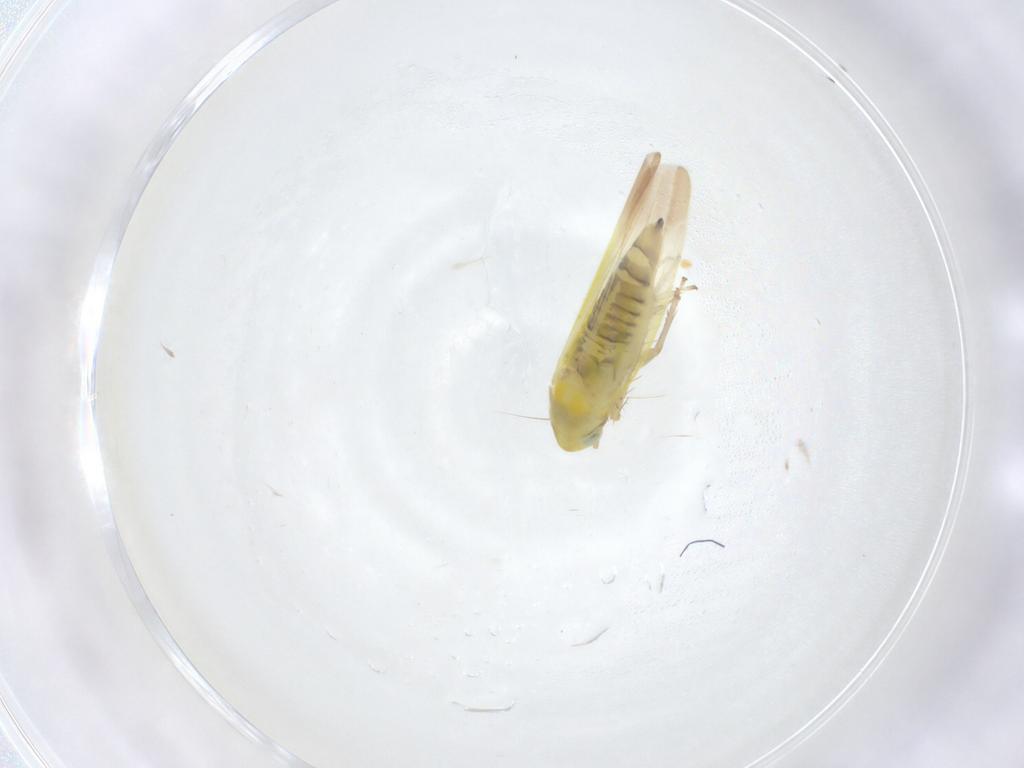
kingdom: Animalia
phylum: Arthropoda
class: Insecta
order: Hemiptera
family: Cicadellidae
